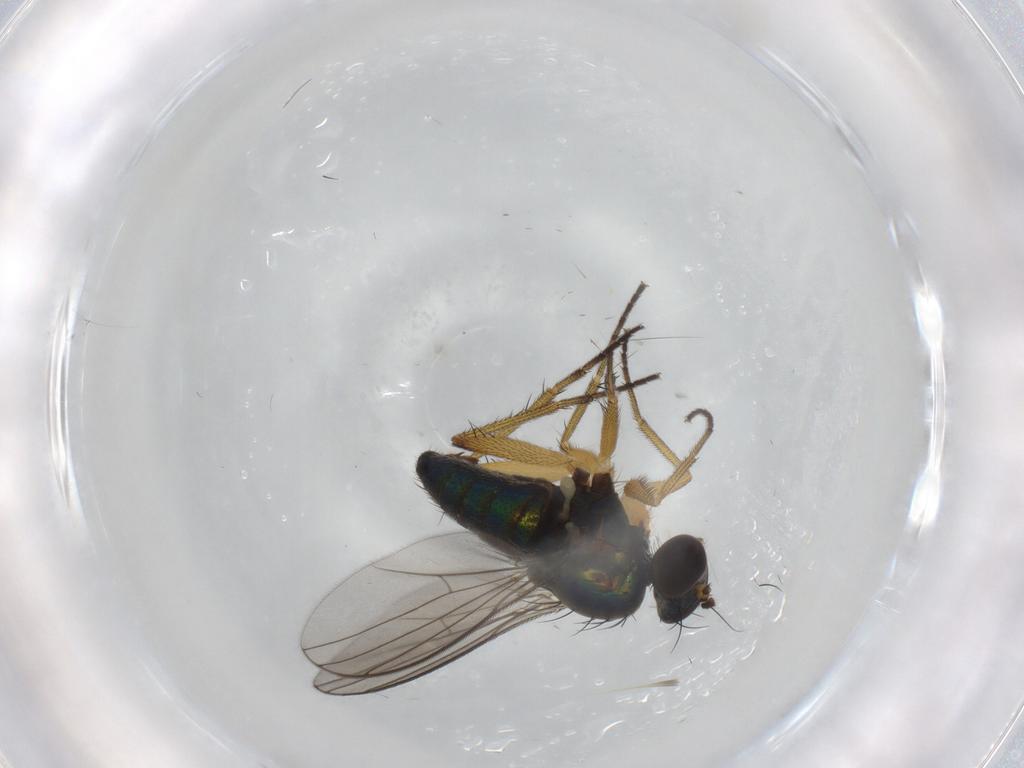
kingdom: Animalia
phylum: Arthropoda
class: Insecta
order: Diptera
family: Dolichopodidae
